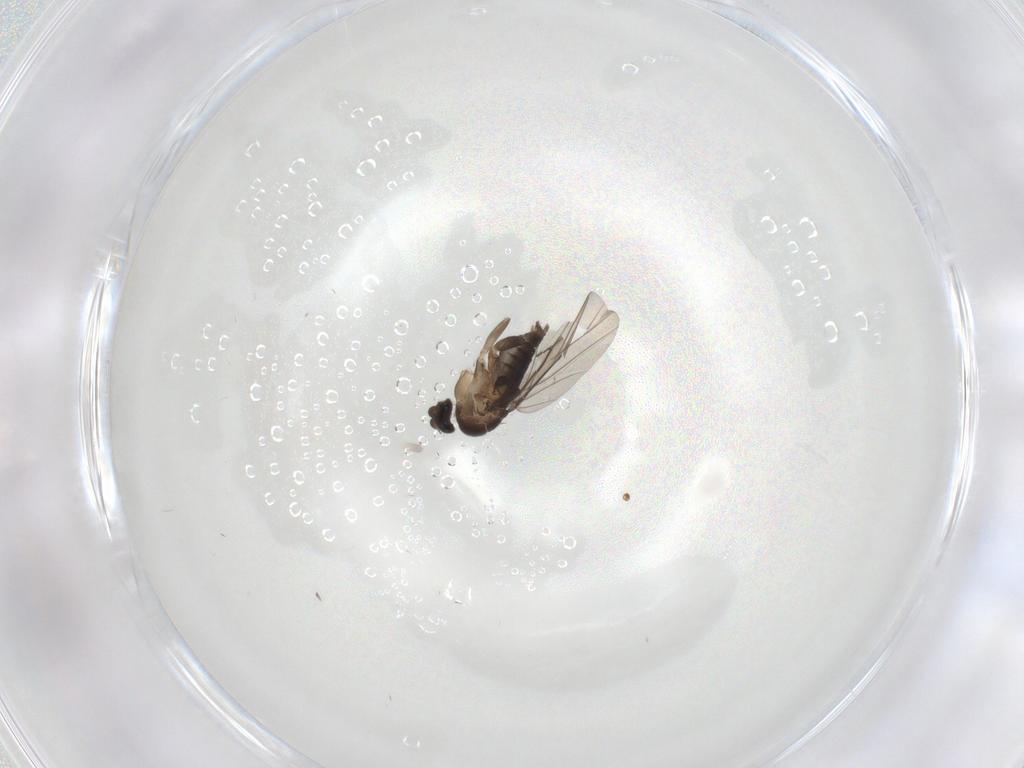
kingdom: Animalia
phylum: Arthropoda
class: Insecta
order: Diptera
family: Phoridae
